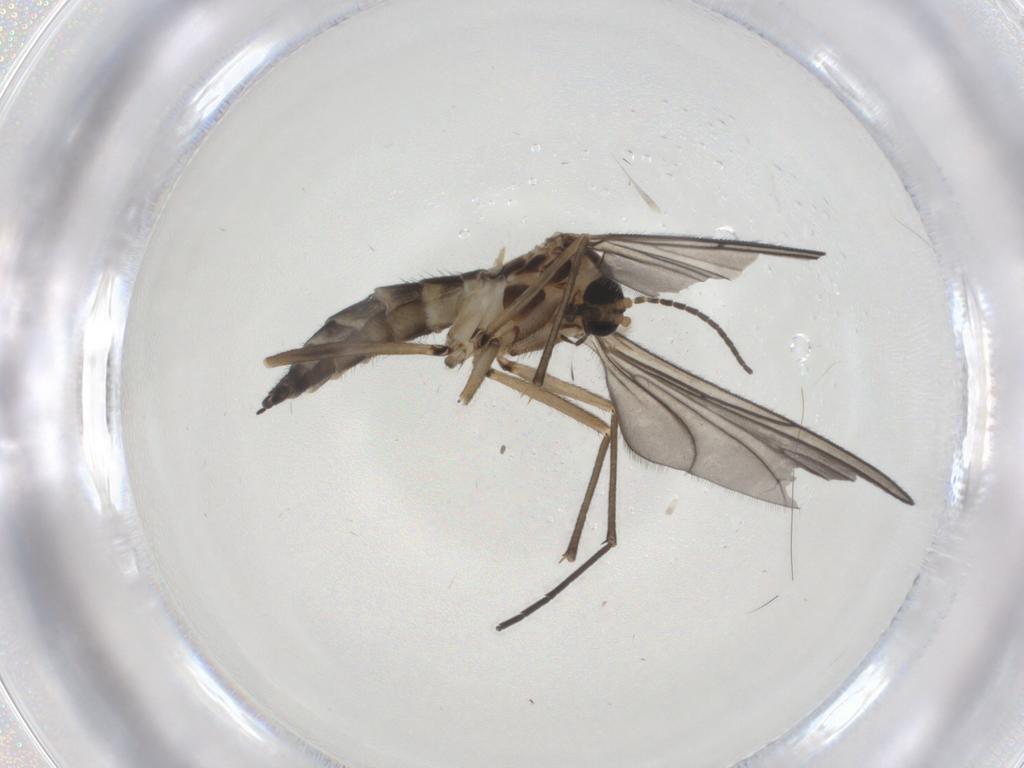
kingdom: Animalia
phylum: Arthropoda
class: Insecta
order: Diptera
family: Sciaridae
